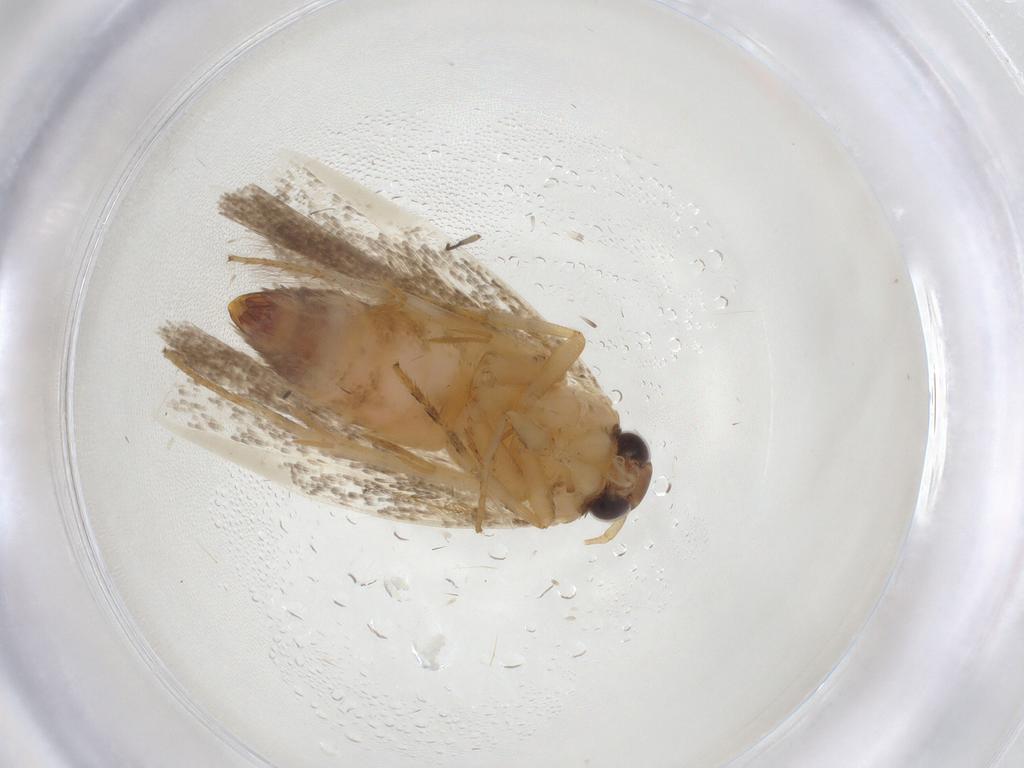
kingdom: Animalia
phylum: Arthropoda
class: Insecta
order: Lepidoptera
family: Gelechiidae
